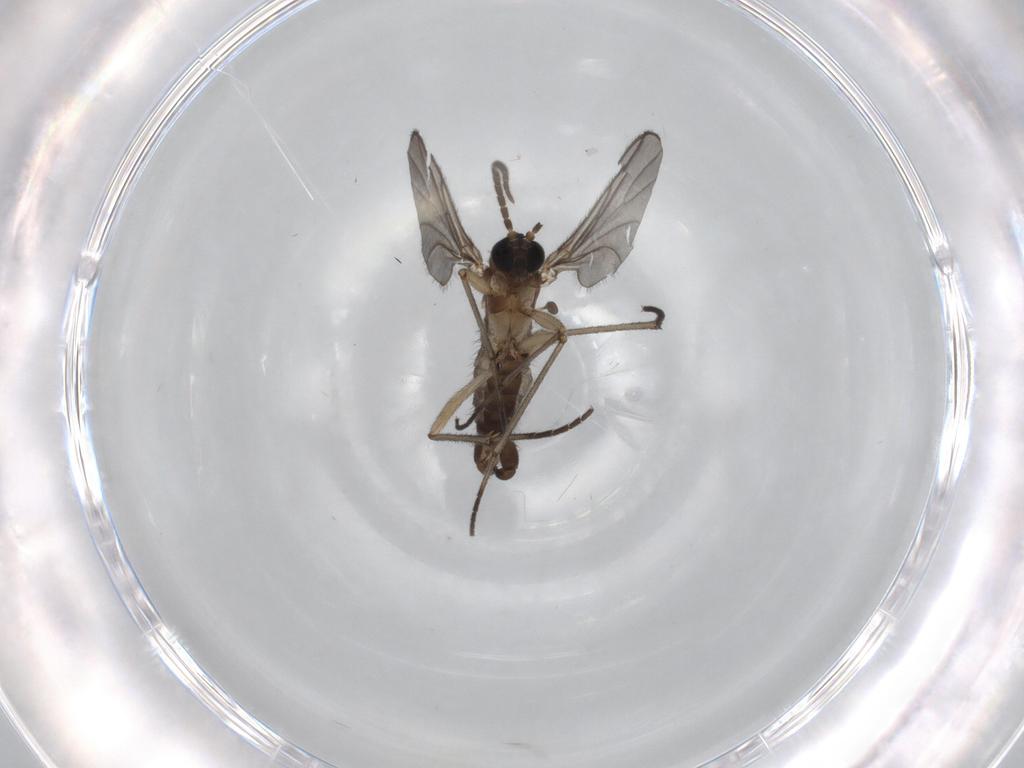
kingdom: Animalia
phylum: Arthropoda
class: Insecta
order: Diptera
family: Sciaridae
